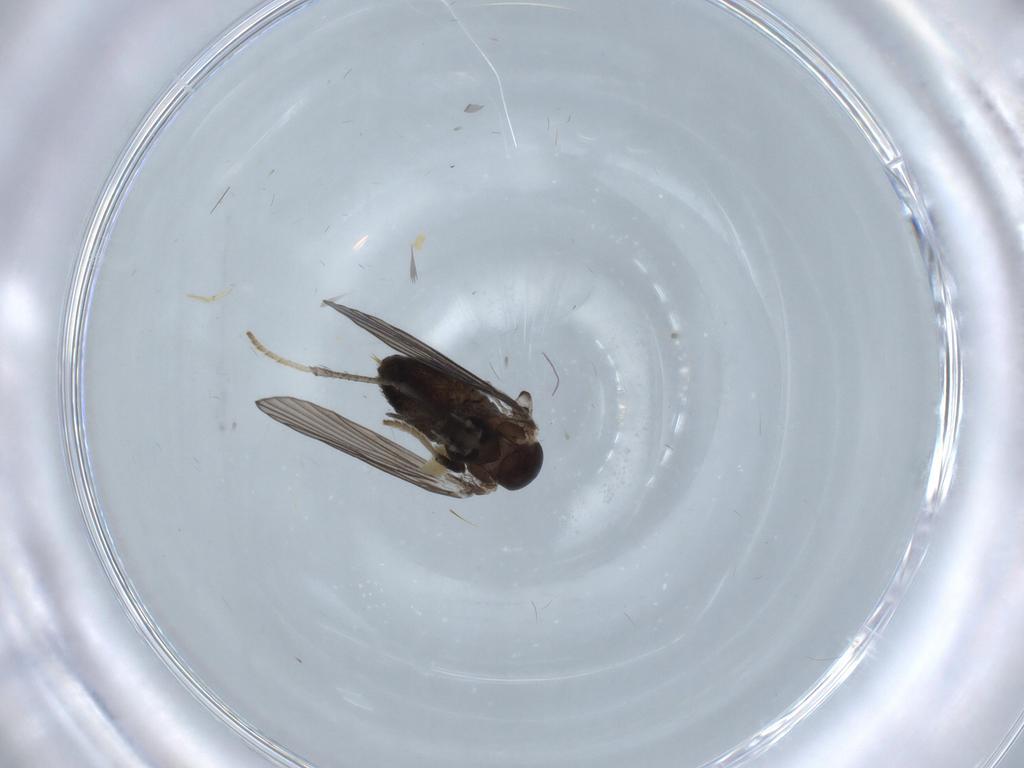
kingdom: Animalia
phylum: Arthropoda
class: Insecta
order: Diptera
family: Psychodidae
